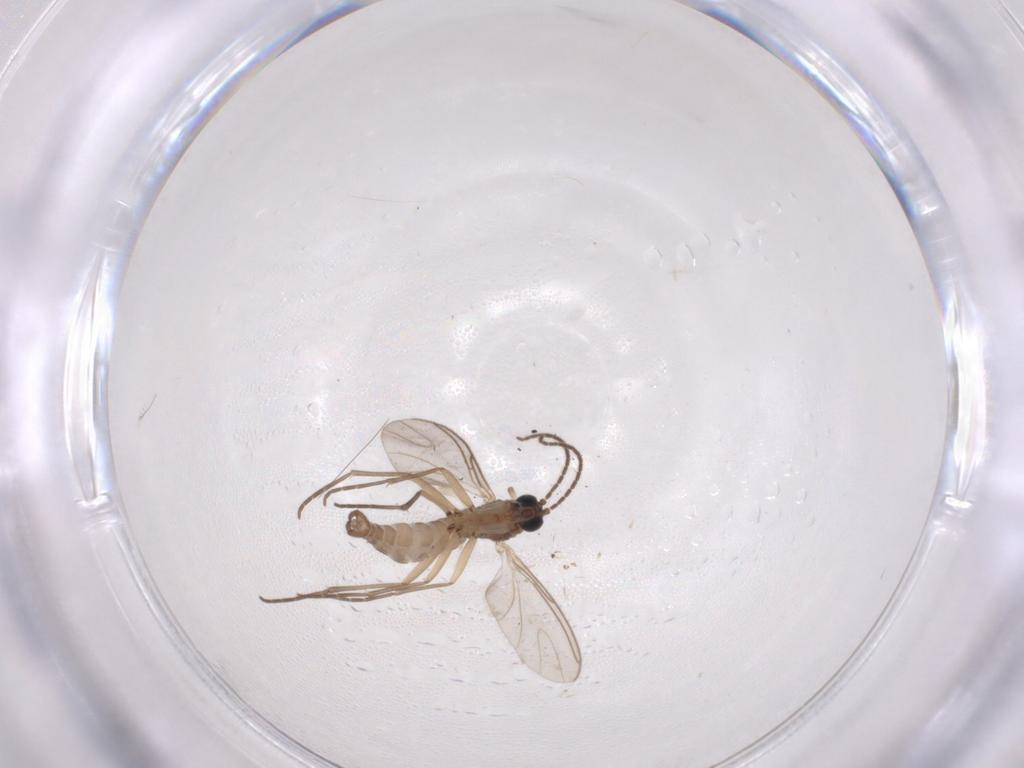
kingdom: Animalia
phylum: Arthropoda
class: Insecta
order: Diptera
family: Sciaridae
